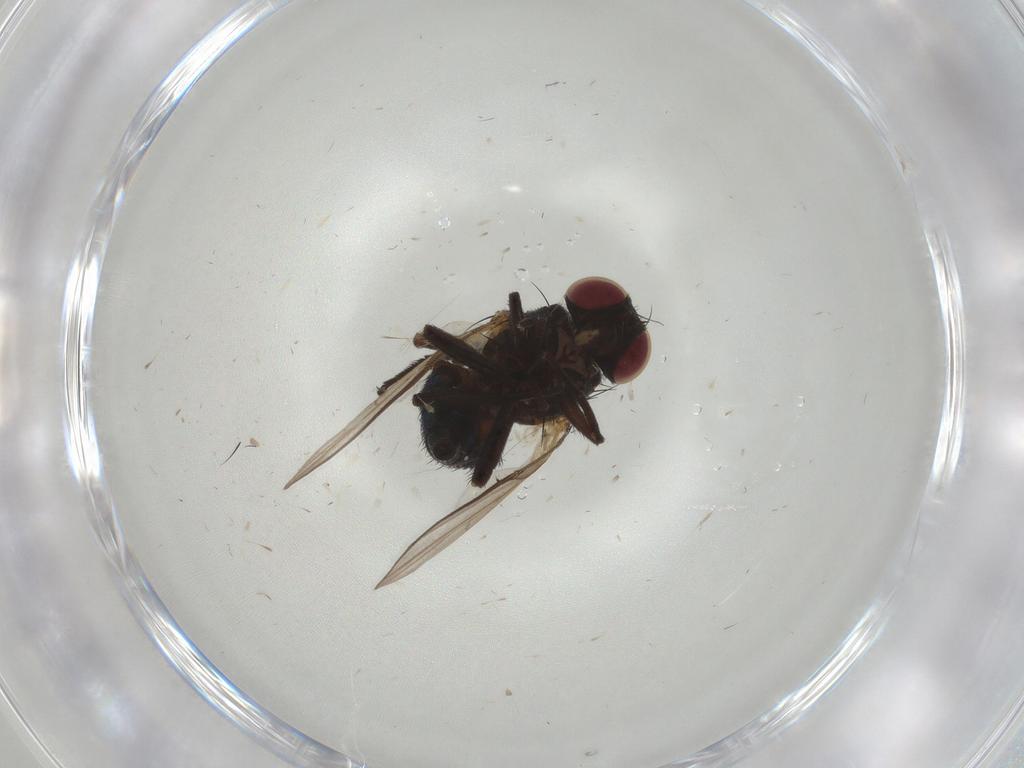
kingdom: Animalia
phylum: Arthropoda
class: Insecta
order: Diptera
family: Agromyzidae
